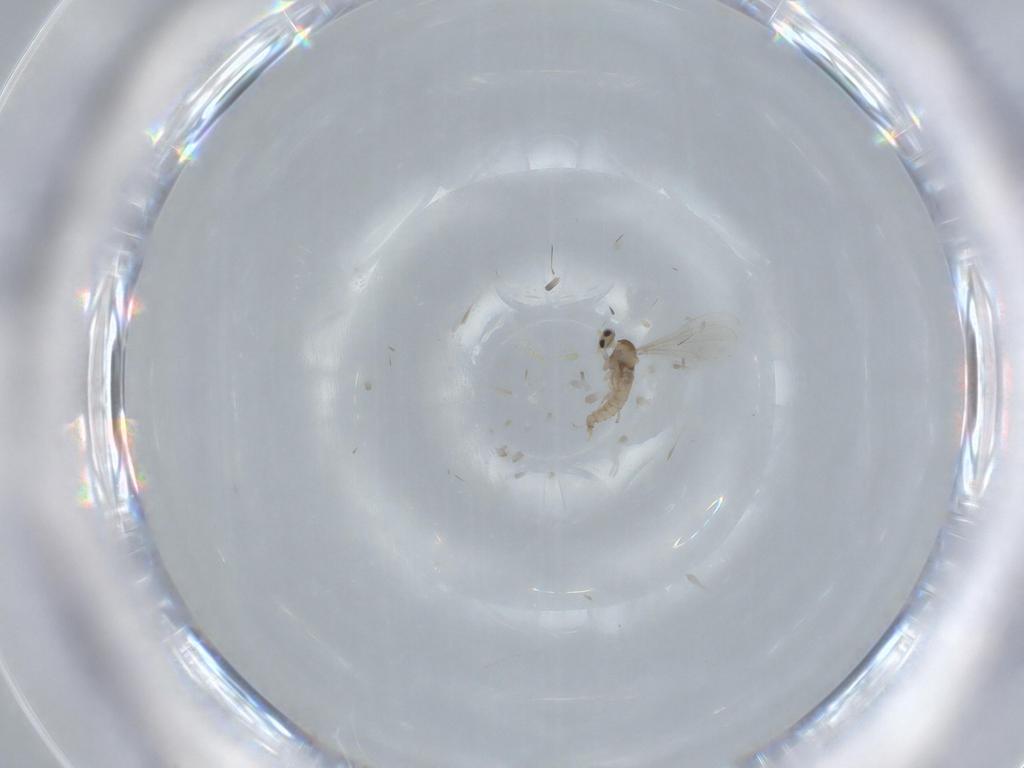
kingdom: Animalia
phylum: Arthropoda
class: Insecta
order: Diptera
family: Cecidomyiidae
